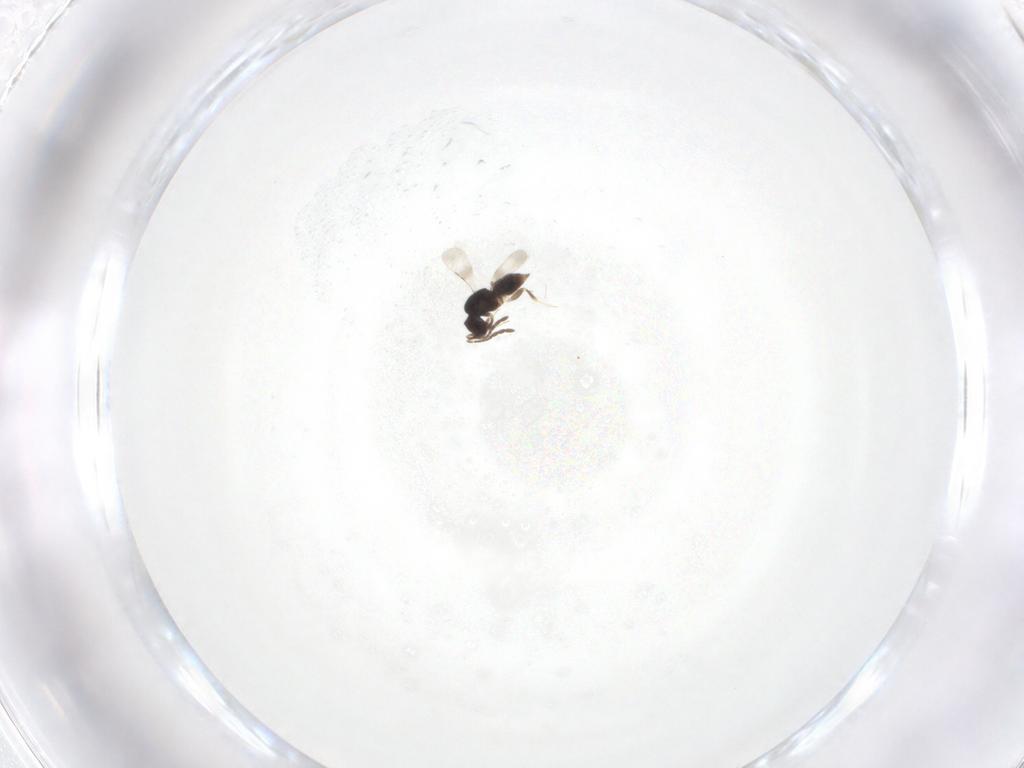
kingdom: Animalia
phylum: Arthropoda
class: Insecta
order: Hymenoptera
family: Ceraphronidae
